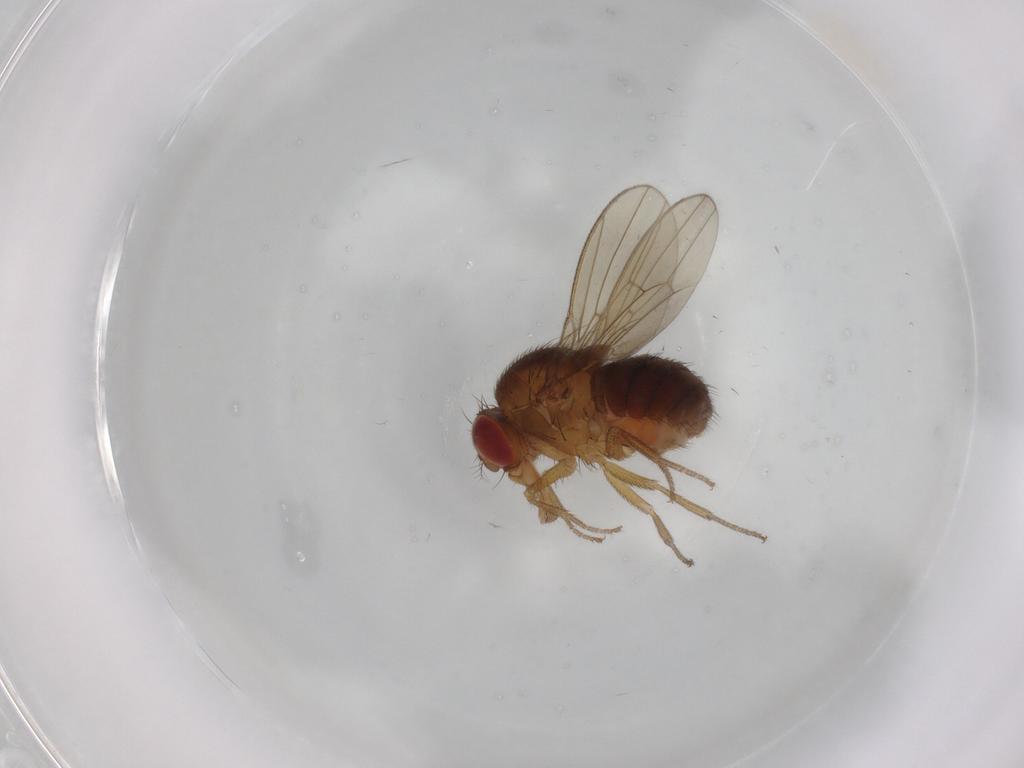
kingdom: Animalia
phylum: Arthropoda
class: Insecta
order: Diptera
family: Drosophilidae
